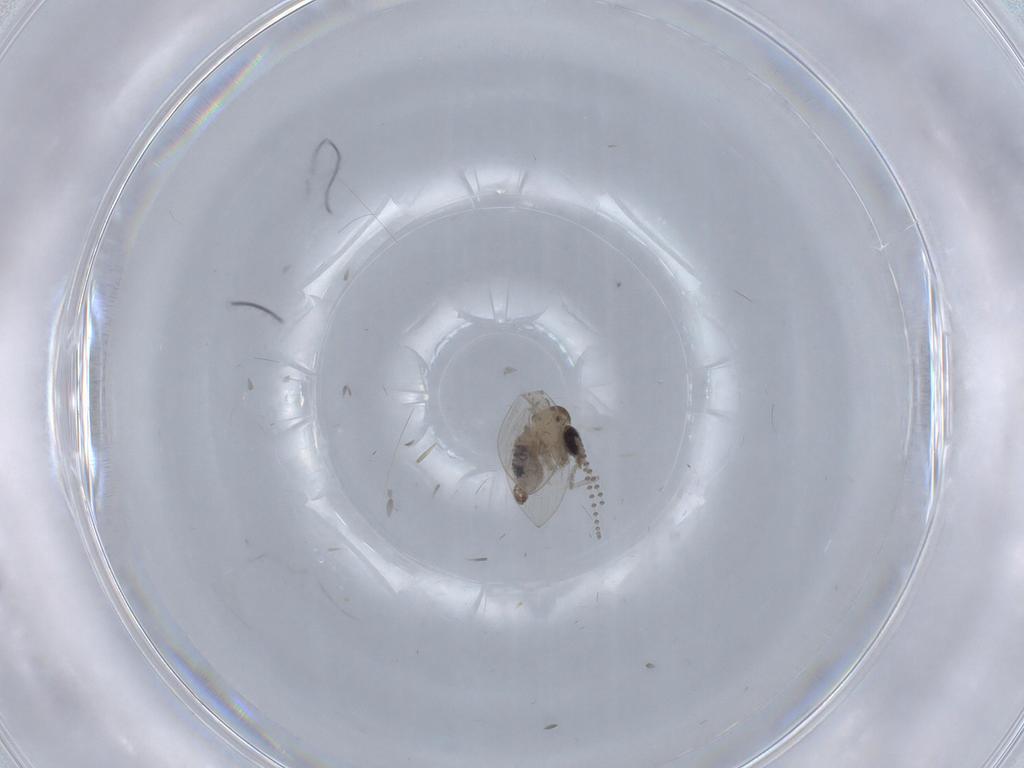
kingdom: Animalia
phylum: Arthropoda
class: Insecta
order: Diptera
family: Psychodidae
